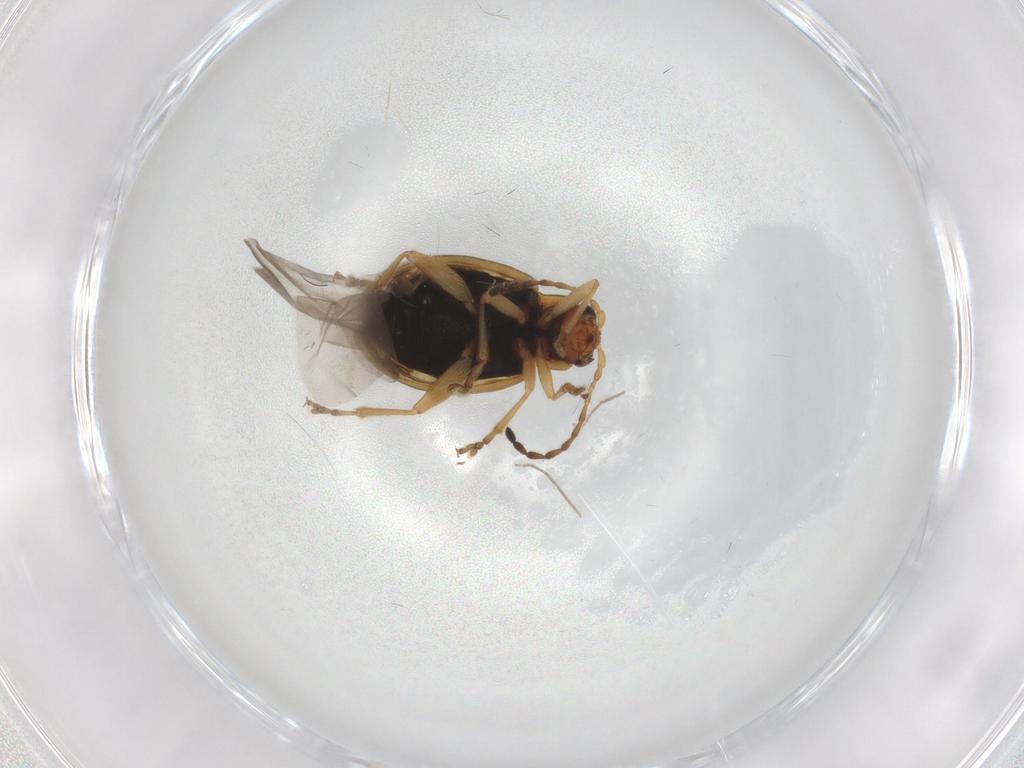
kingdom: Animalia
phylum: Arthropoda
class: Insecta
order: Coleoptera
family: Chrysomelidae
